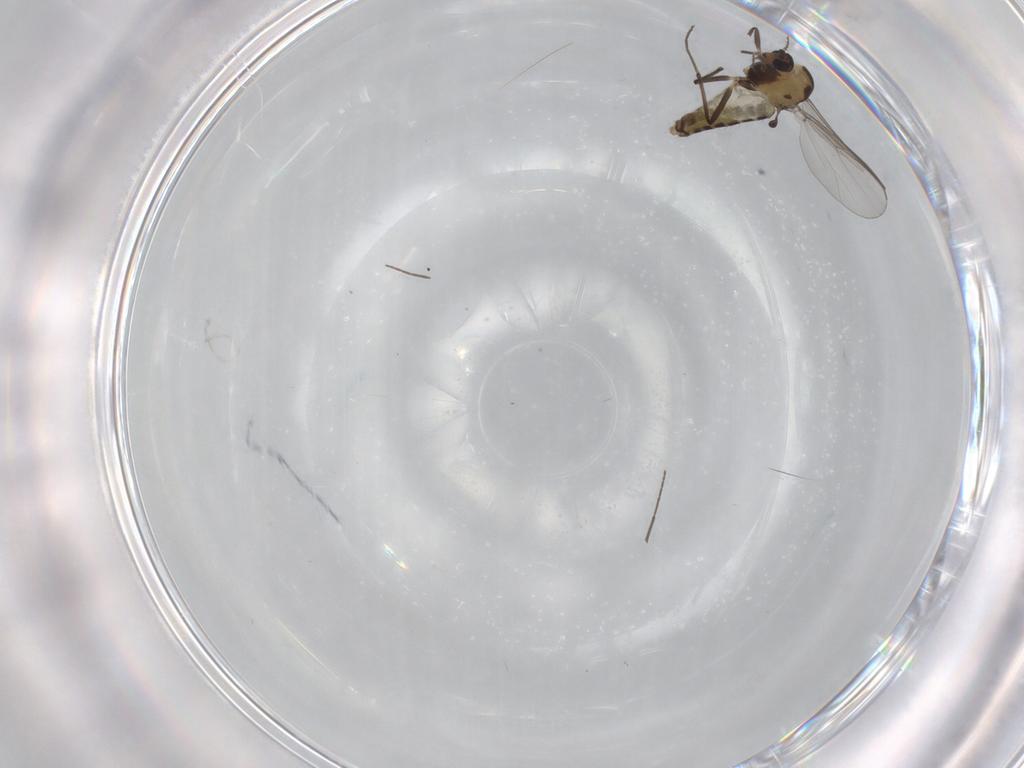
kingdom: Animalia
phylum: Arthropoda
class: Insecta
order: Diptera
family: Chironomidae
